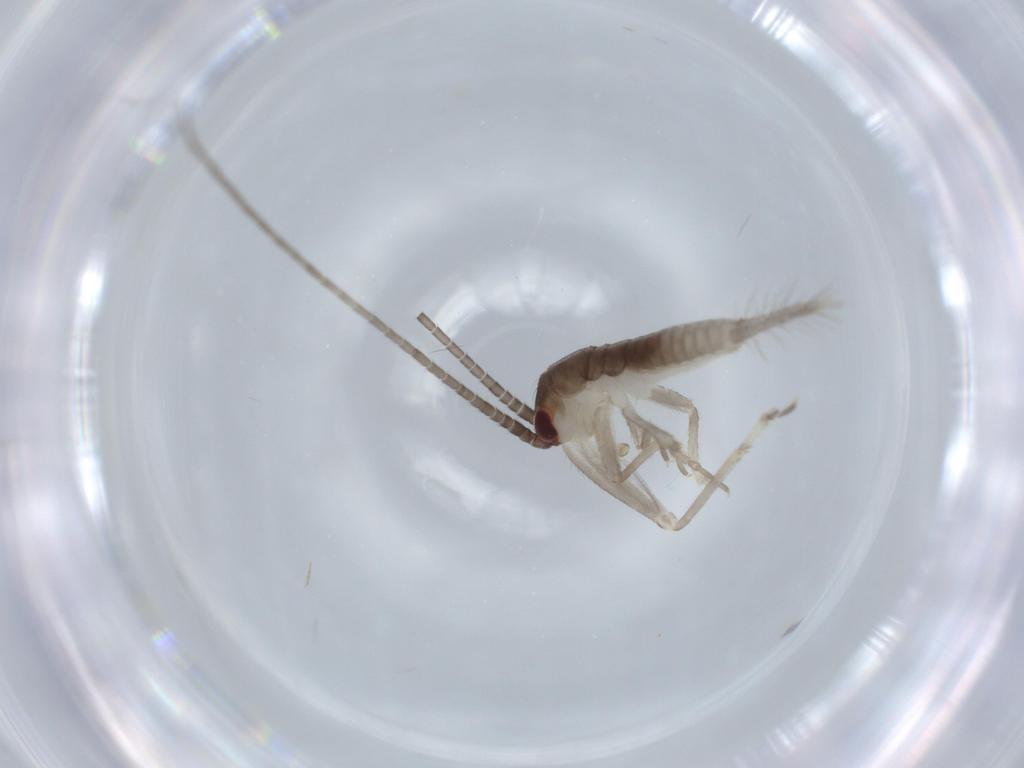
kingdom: Animalia
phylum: Arthropoda
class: Insecta
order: Orthoptera
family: Gryllidae
